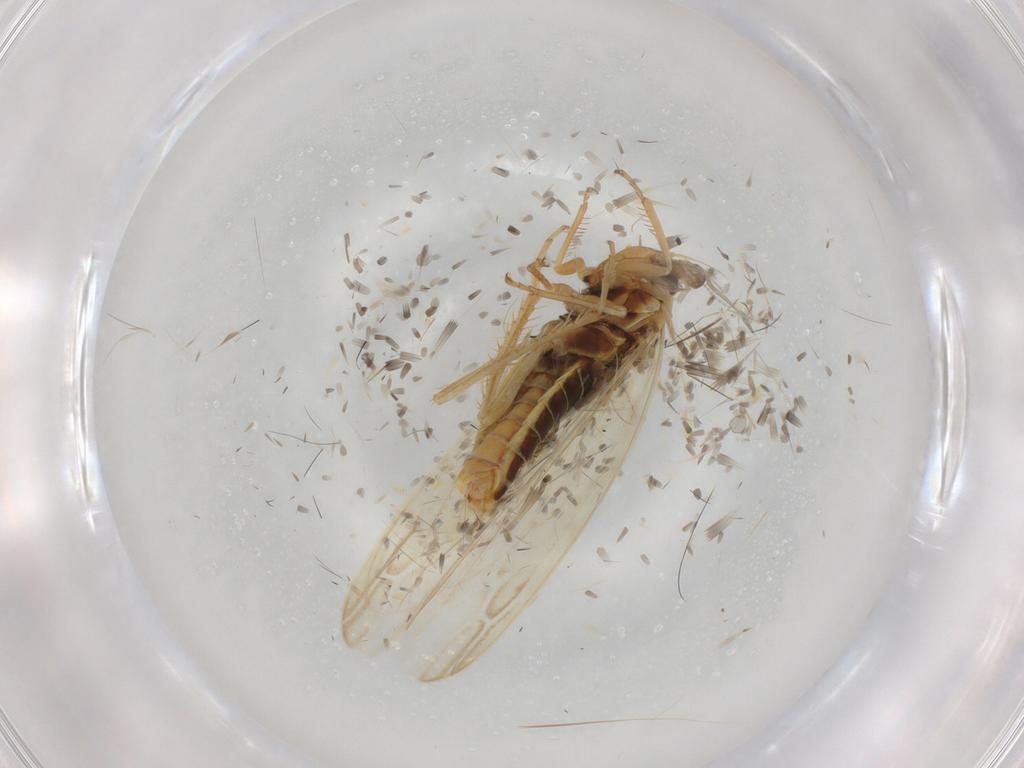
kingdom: Animalia
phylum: Arthropoda
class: Insecta
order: Hemiptera
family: Cicadellidae
